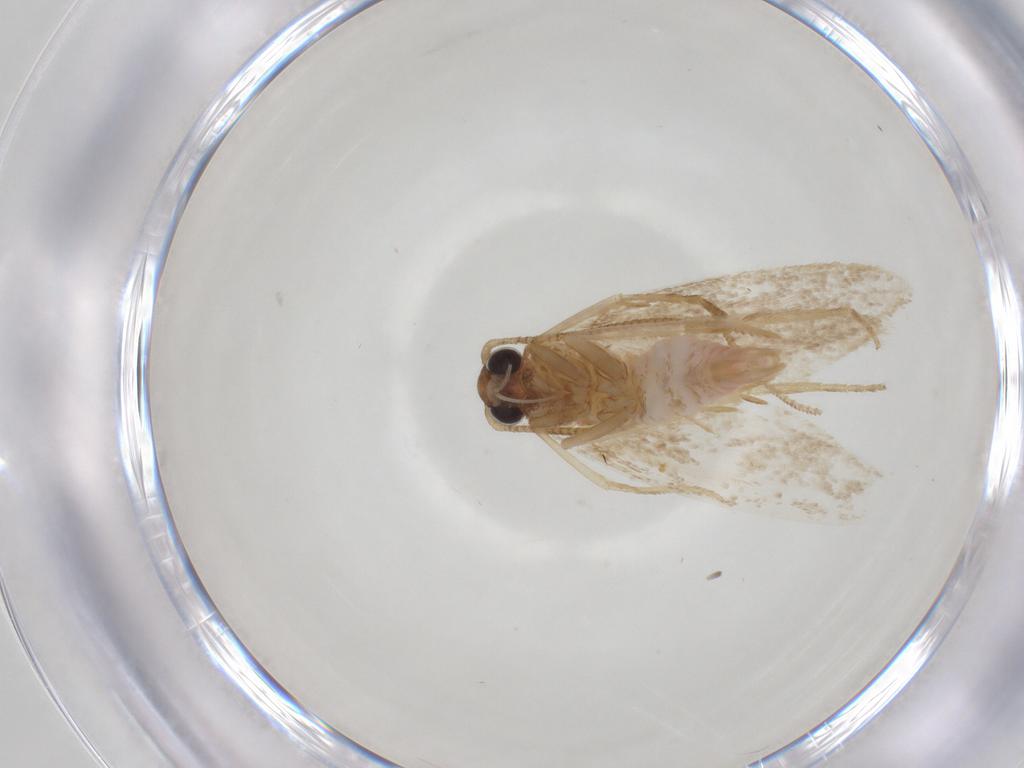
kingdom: Animalia
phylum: Arthropoda
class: Insecta
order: Lepidoptera
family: Autostichidae
